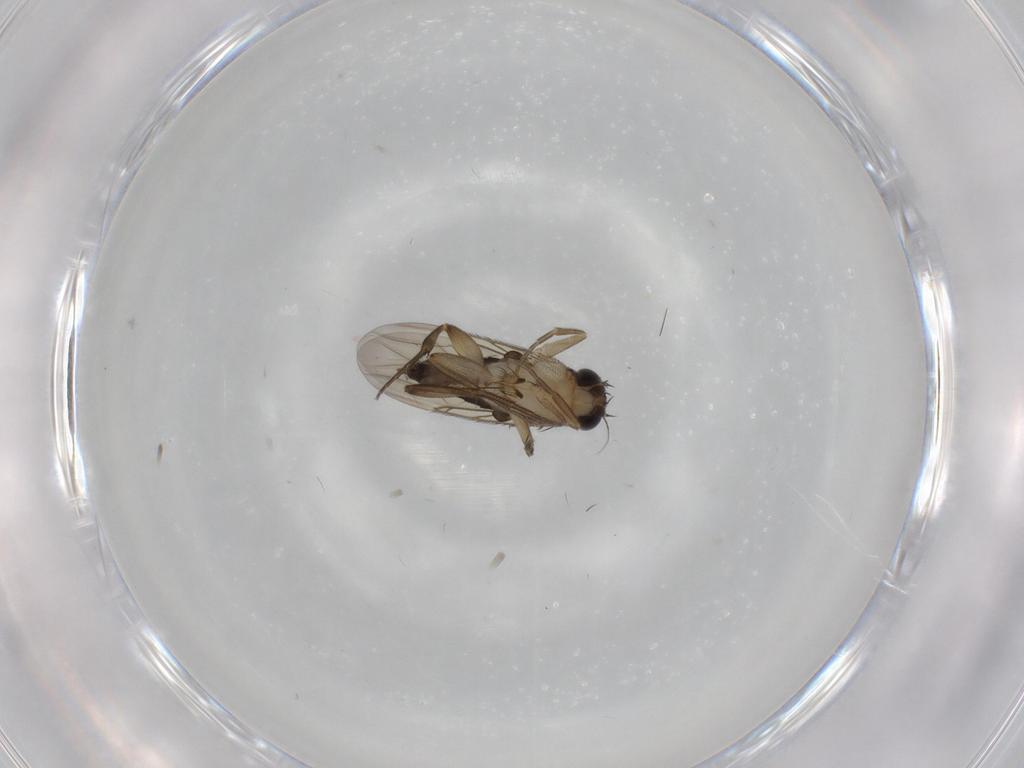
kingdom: Animalia
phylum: Arthropoda
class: Insecta
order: Diptera
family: Phoridae
